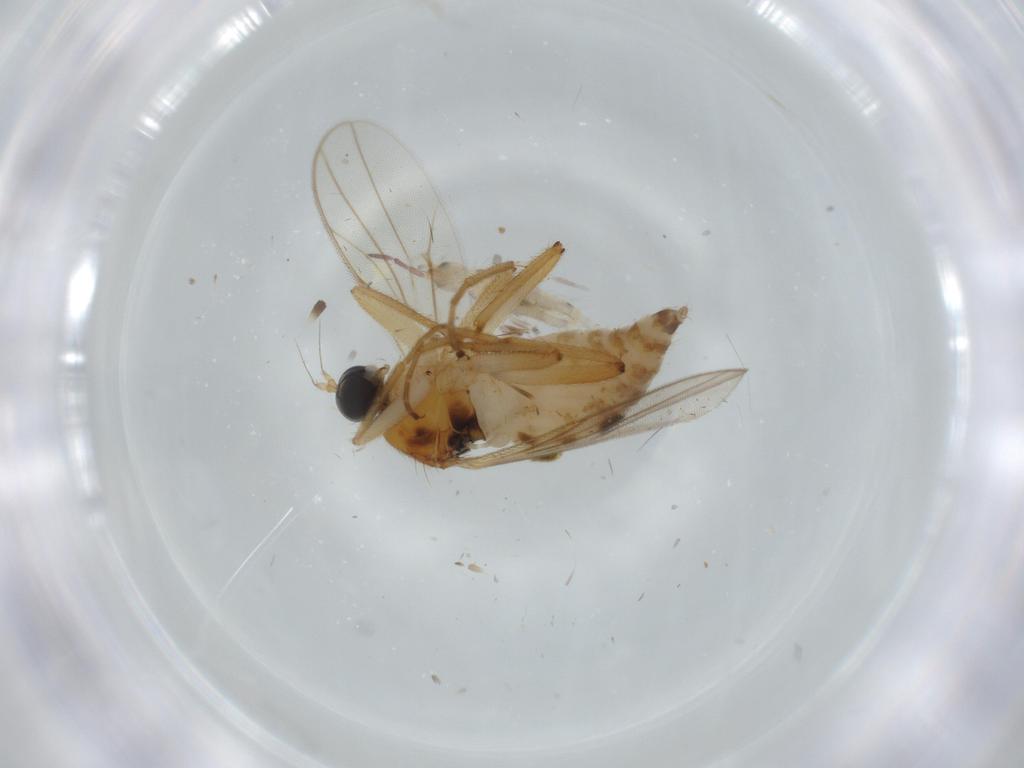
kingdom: Animalia
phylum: Arthropoda
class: Insecta
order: Diptera
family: Hybotidae
